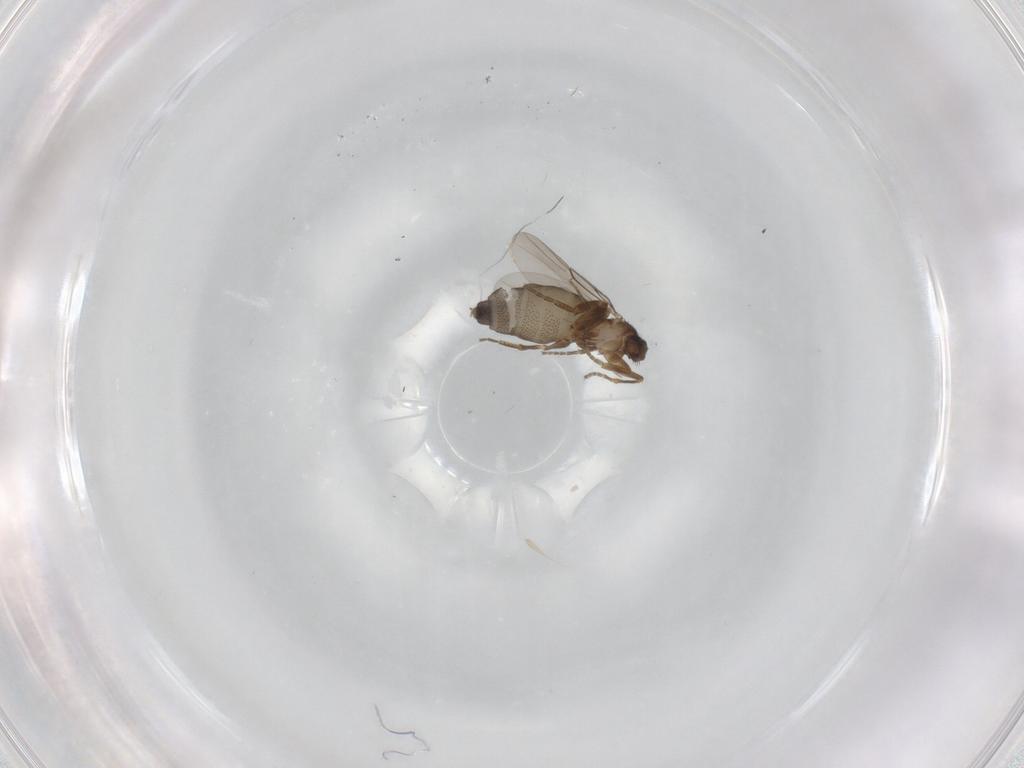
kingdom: Animalia
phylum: Arthropoda
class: Insecta
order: Diptera
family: Phoridae
